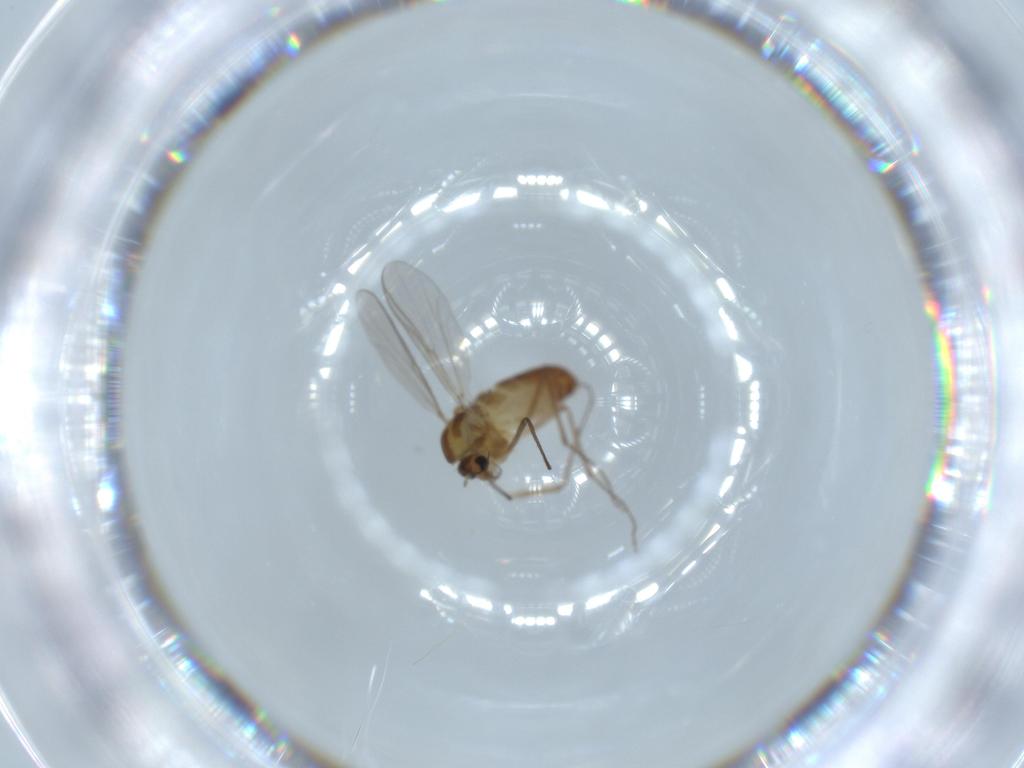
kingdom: Animalia
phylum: Arthropoda
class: Insecta
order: Diptera
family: Chironomidae
